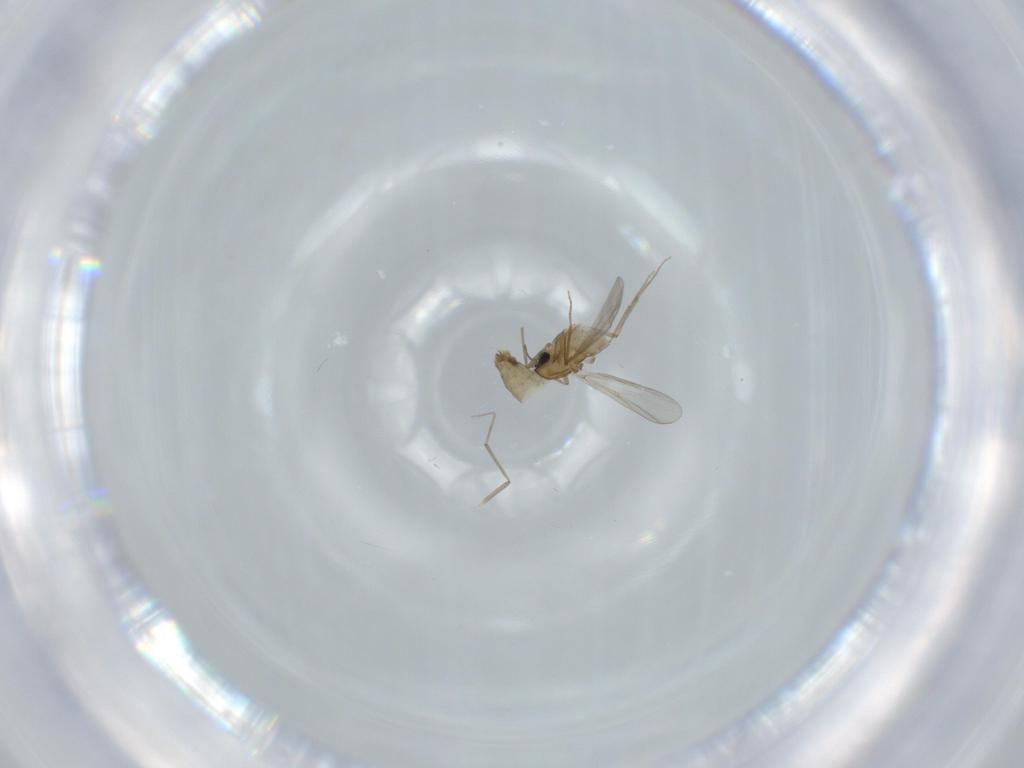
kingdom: Animalia
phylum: Arthropoda
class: Insecta
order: Diptera
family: Chironomidae
